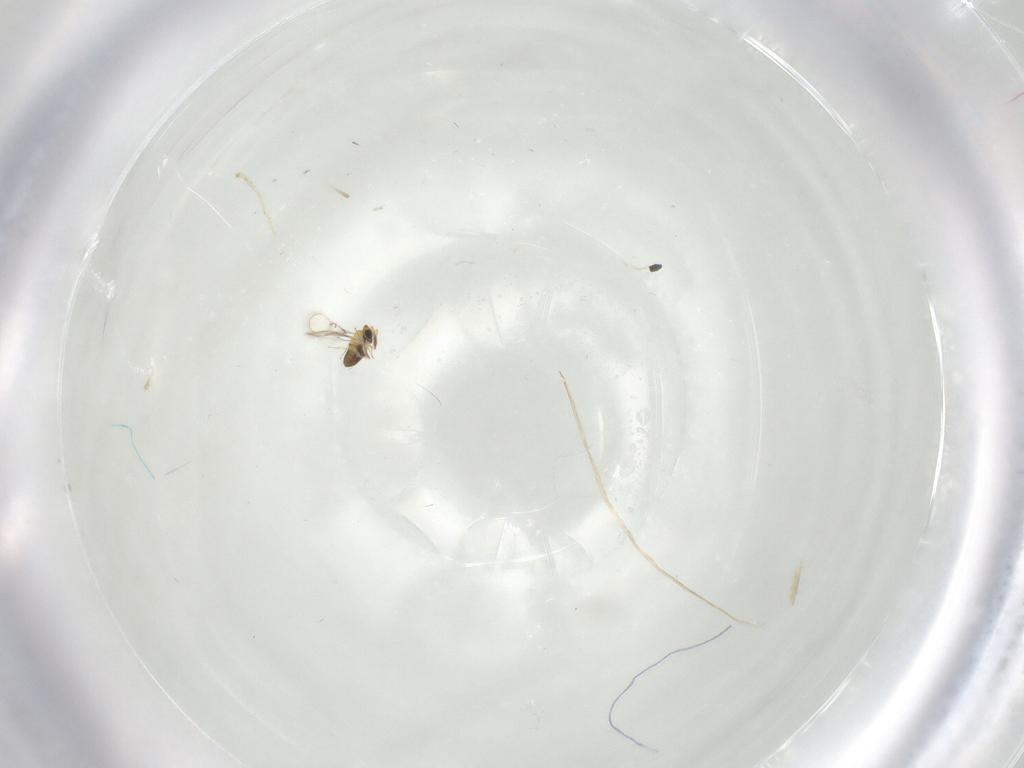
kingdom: Animalia
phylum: Arthropoda
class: Insecta
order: Diptera
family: Cecidomyiidae
